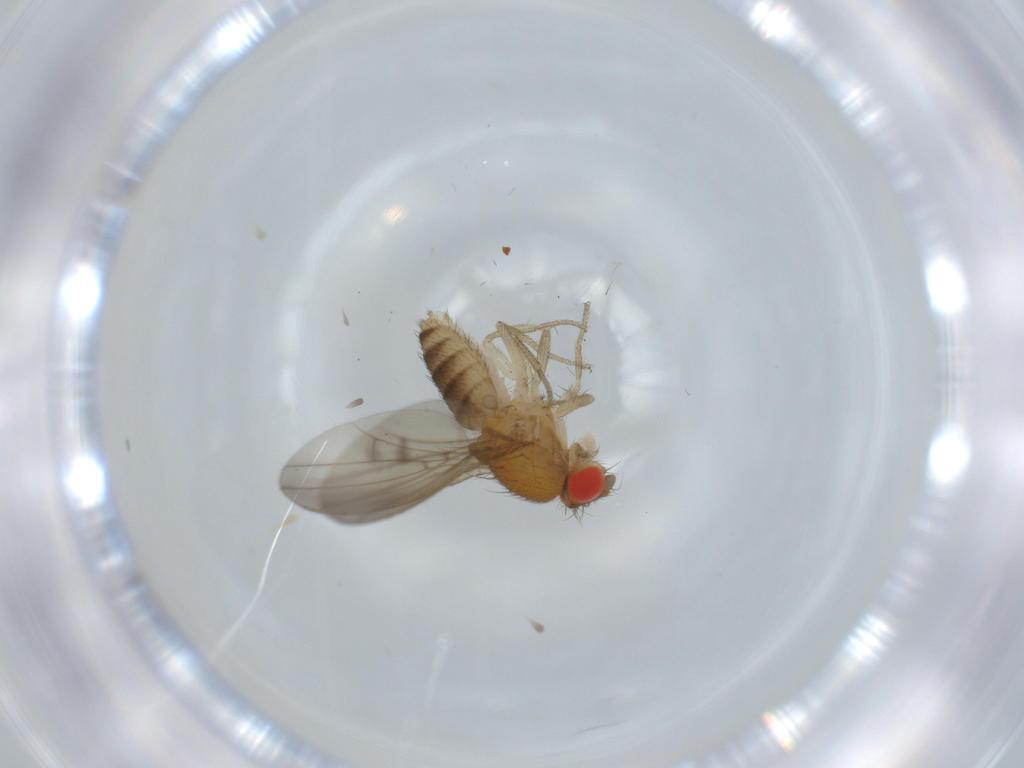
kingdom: Animalia
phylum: Arthropoda
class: Insecta
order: Diptera
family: Drosophilidae
